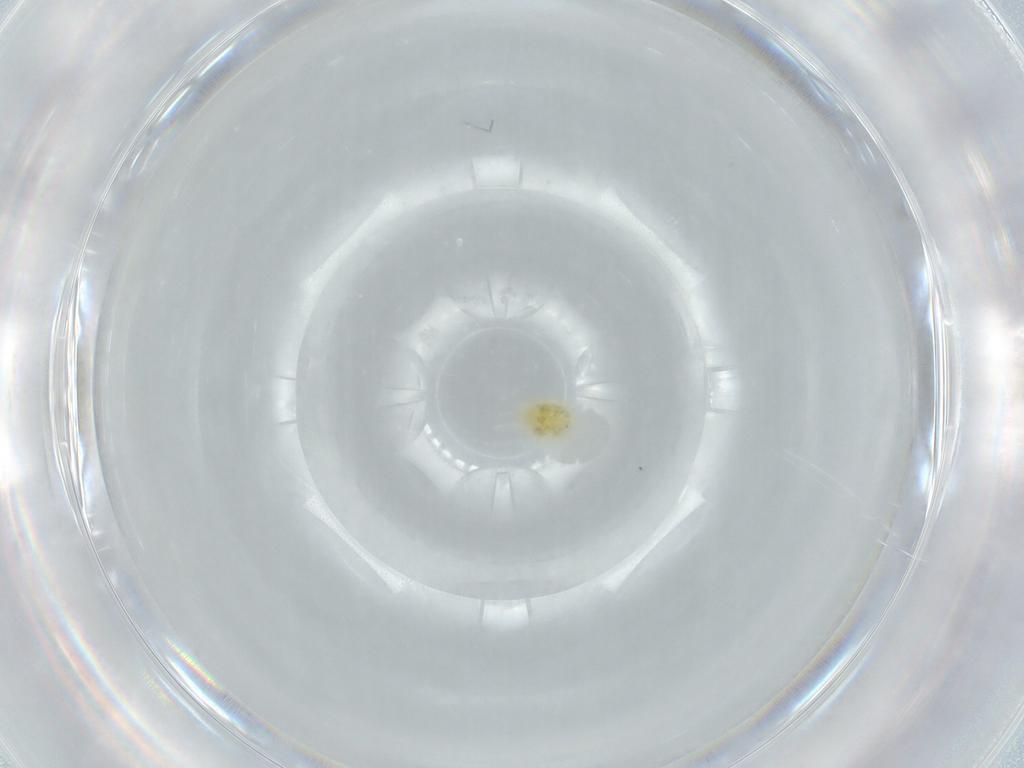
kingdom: Animalia
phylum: Arthropoda
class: Arachnida
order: Trombidiformes
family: Tetranychidae
